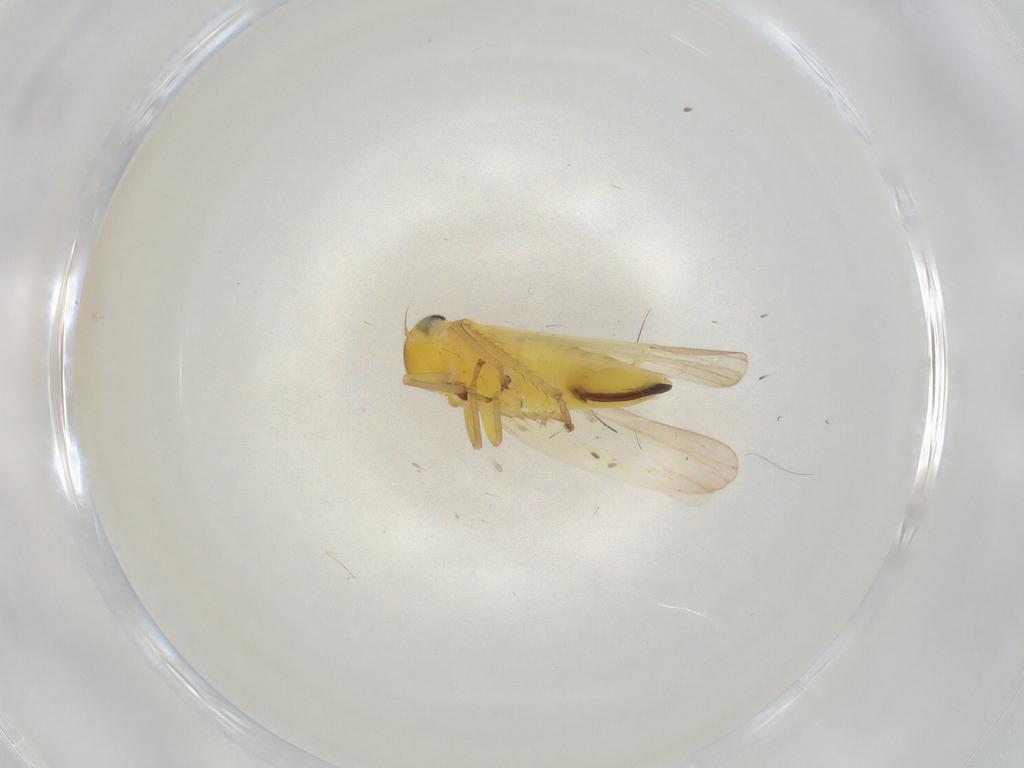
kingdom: Animalia
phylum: Arthropoda
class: Insecta
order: Hemiptera
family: Cicadellidae
